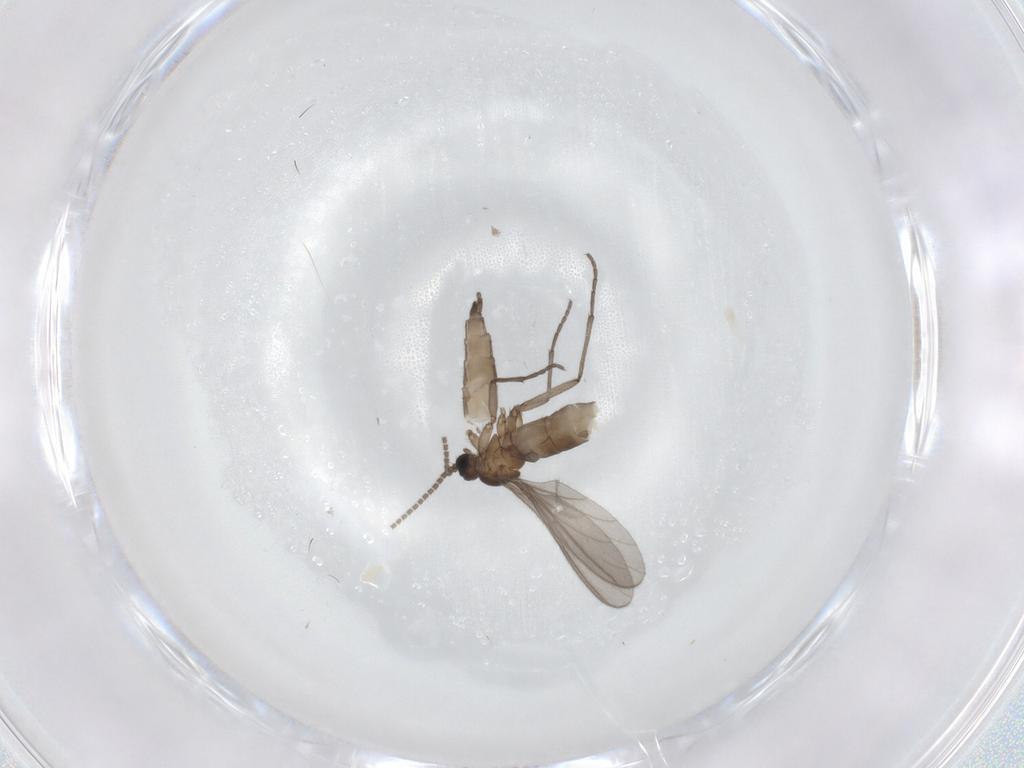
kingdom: Animalia
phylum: Arthropoda
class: Insecta
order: Diptera
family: Sciaridae
